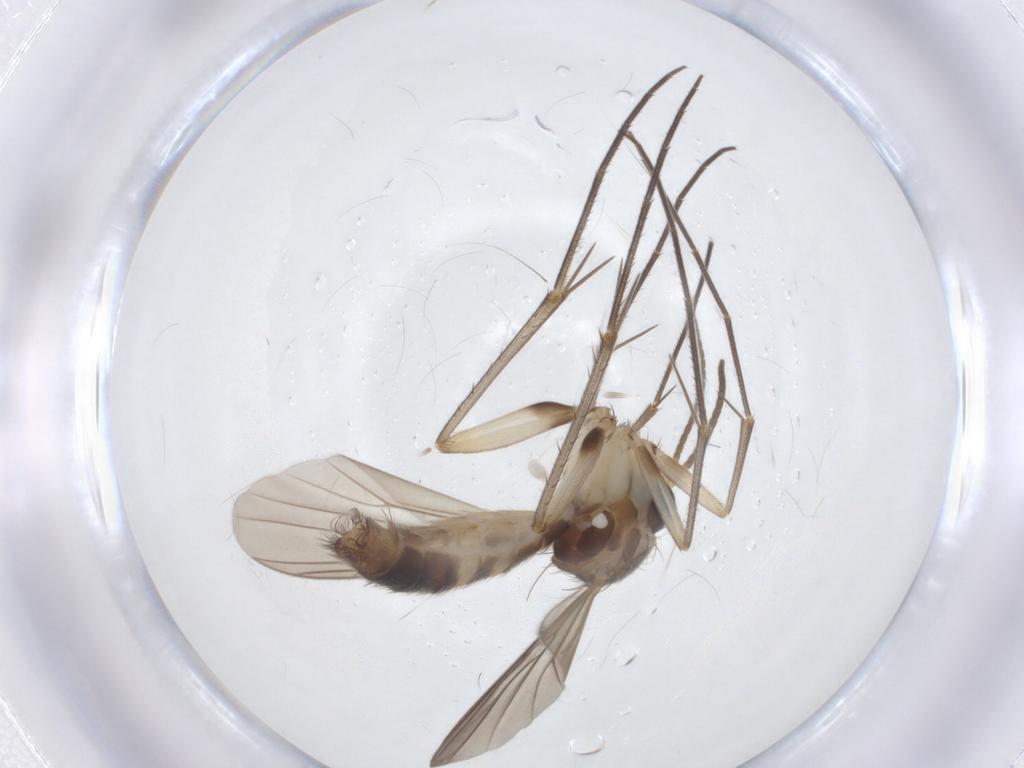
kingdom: Animalia
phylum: Arthropoda
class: Insecta
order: Diptera
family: Mycetophilidae
